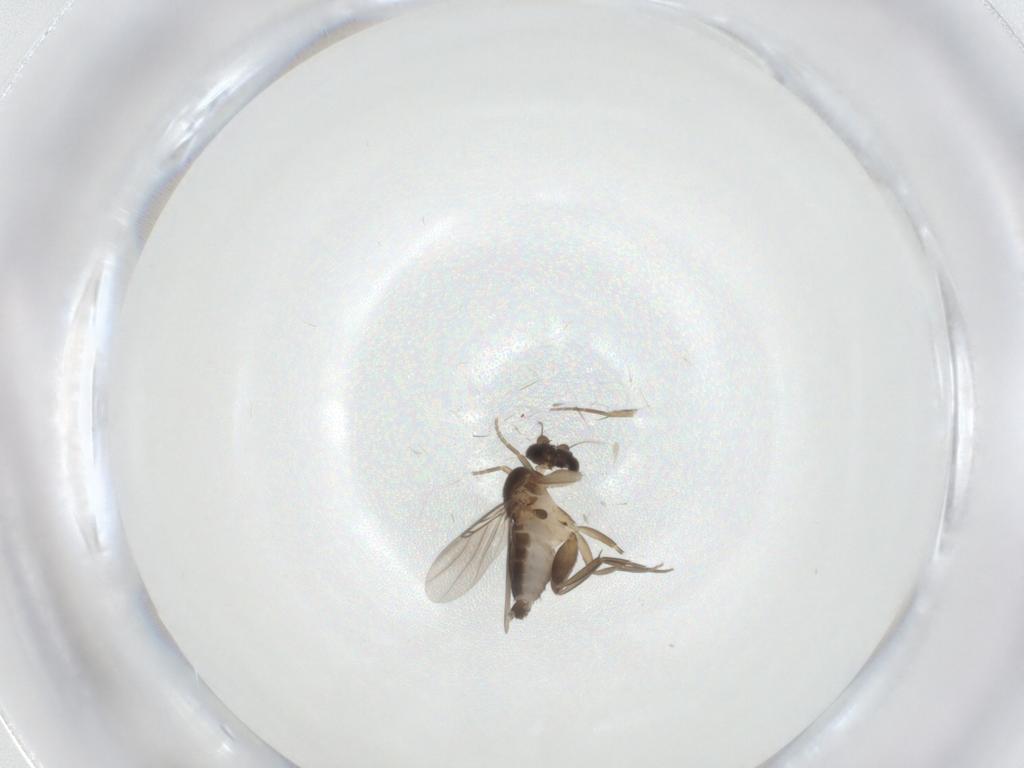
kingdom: Animalia
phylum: Arthropoda
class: Insecta
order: Diptera
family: Phoridae
